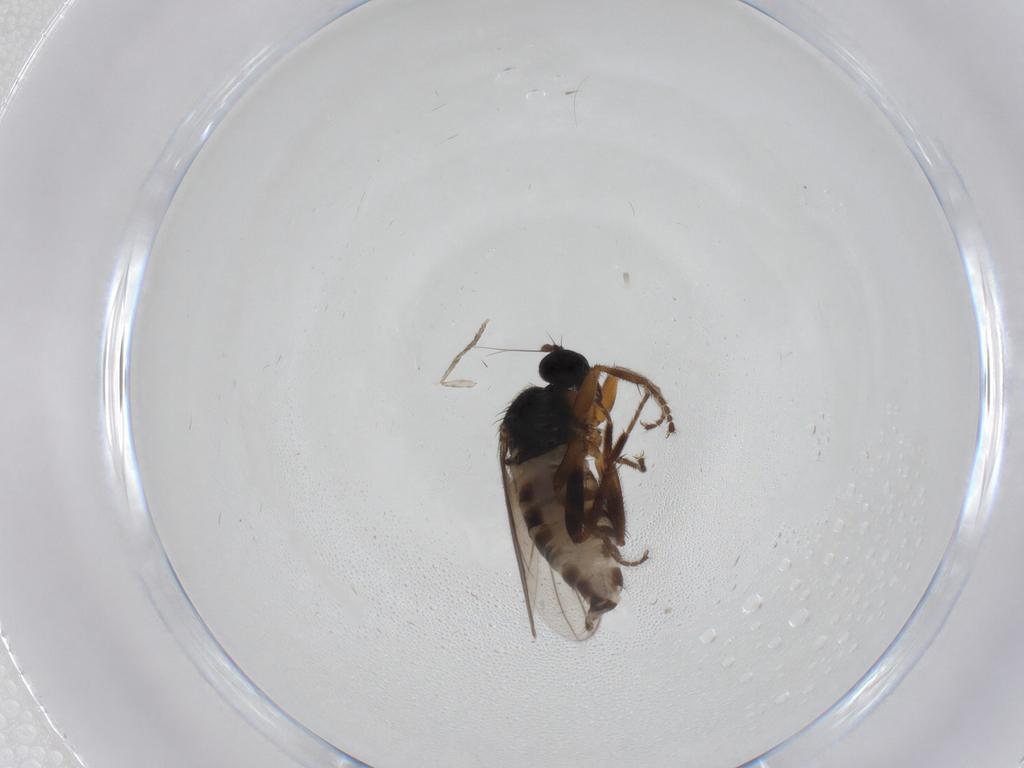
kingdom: Animalia
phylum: Arthropoda
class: Insecta
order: Diptera
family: Hybotidae
